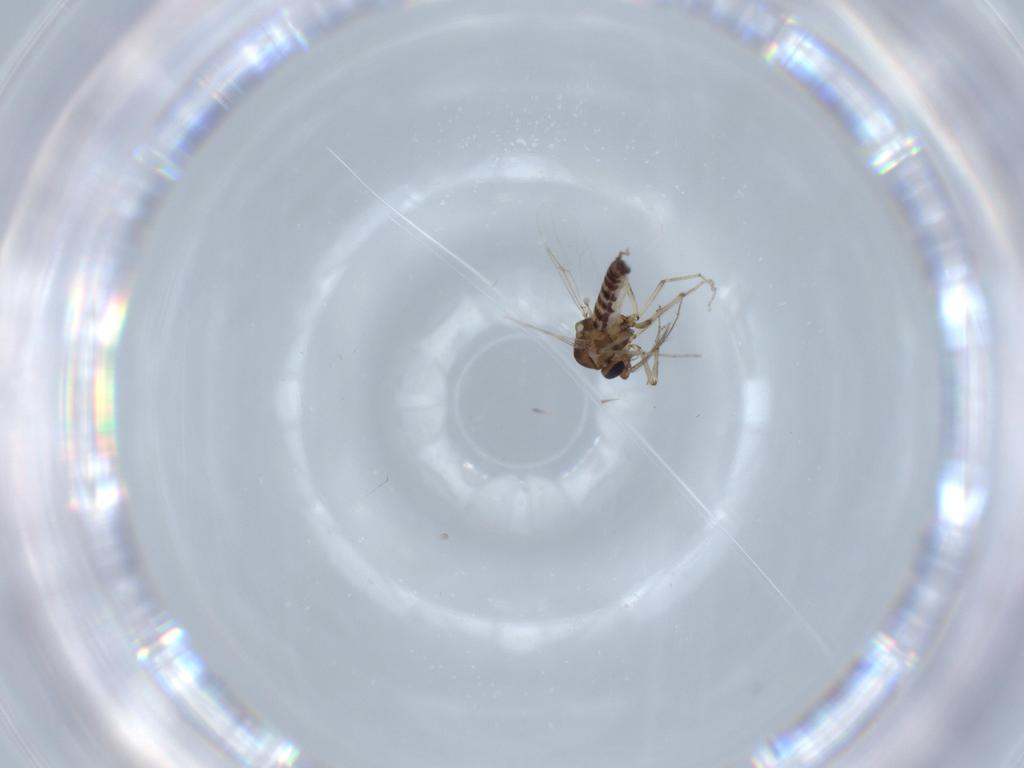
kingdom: Animalia
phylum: Arthropoda
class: Insecta
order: Diptera
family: Ceratopogonidae
